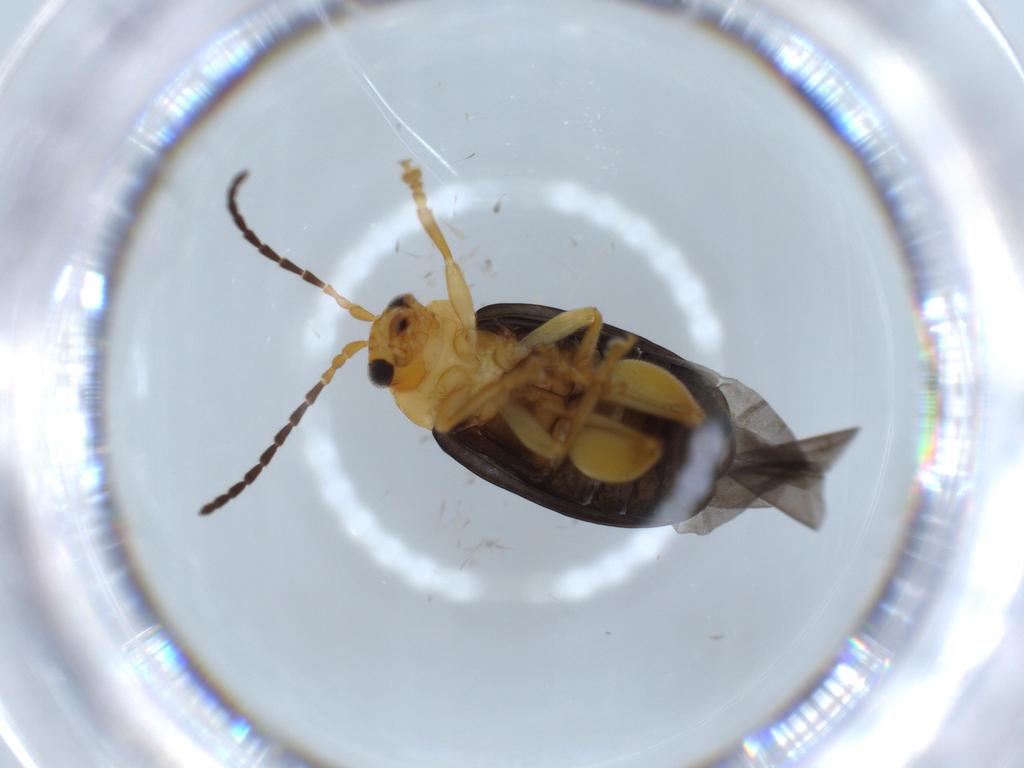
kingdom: Animalia
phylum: Arthropoda
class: Insecta
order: Coleoptera
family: Chrysomelidae
